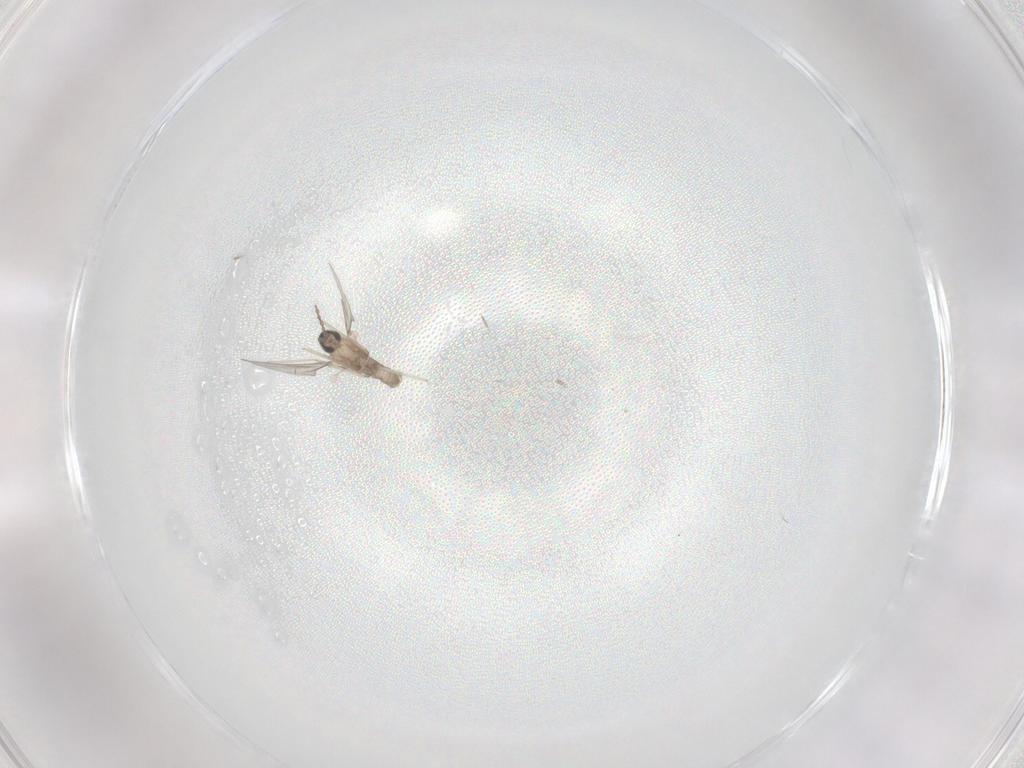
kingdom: Animalia
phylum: Arthropoda
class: Insecta
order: Diptera
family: Cecidomyiidae
